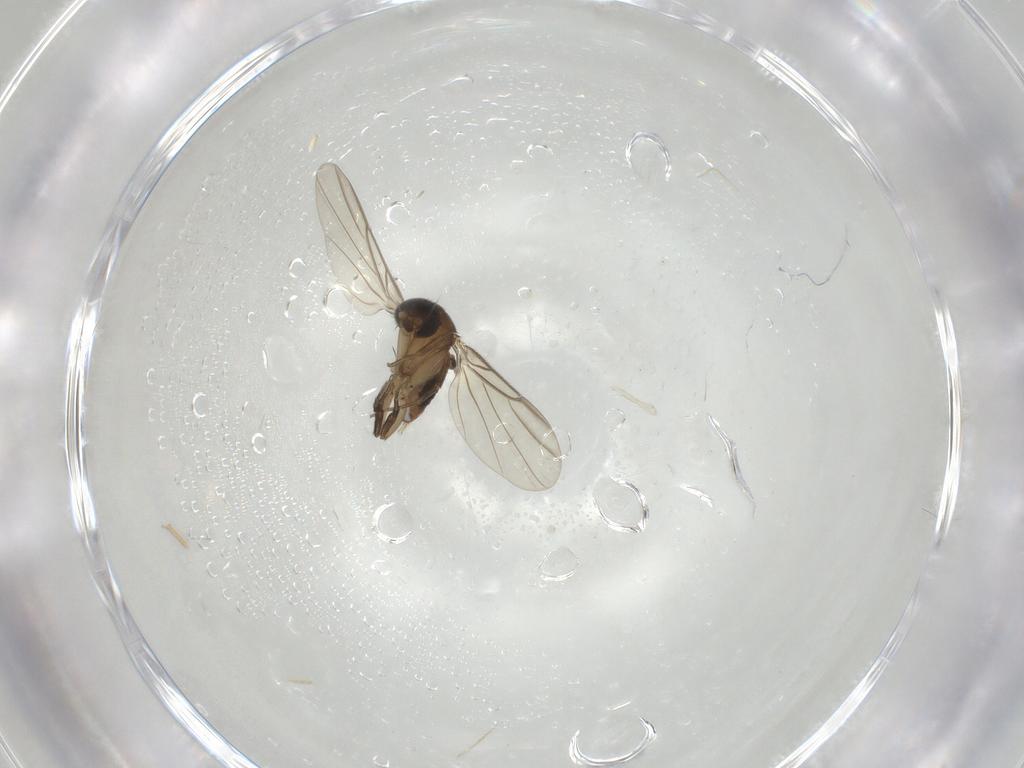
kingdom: Animalia
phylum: Arthropoda
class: Insecta
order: Diptera
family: Phoridae
